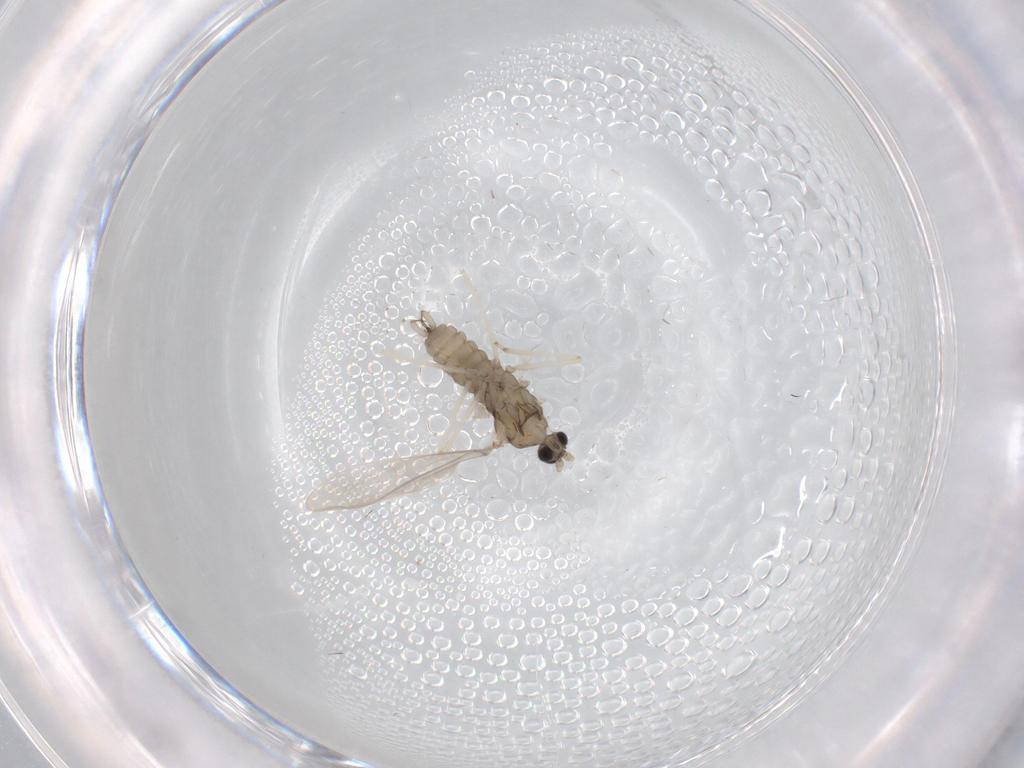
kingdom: Animalia
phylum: Arthropoda
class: Insecta
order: Diptera
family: Cecidomyiidae
